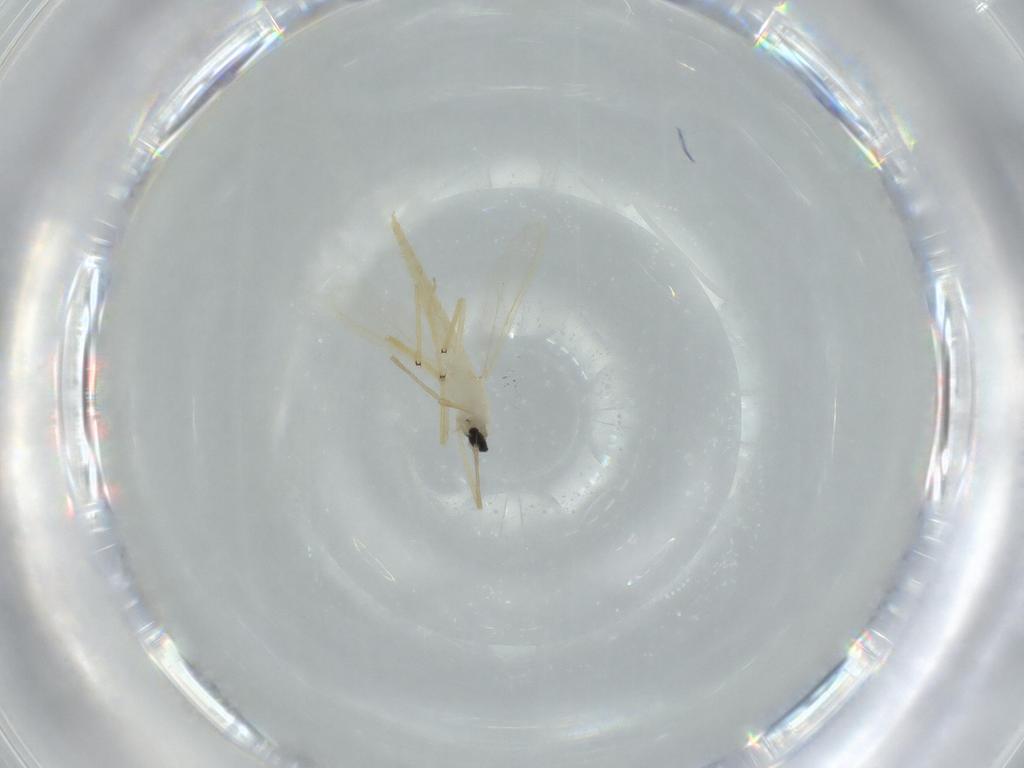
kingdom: Animalia
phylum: Arthropoda
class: Insecta
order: Diptera
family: Chironomidae
